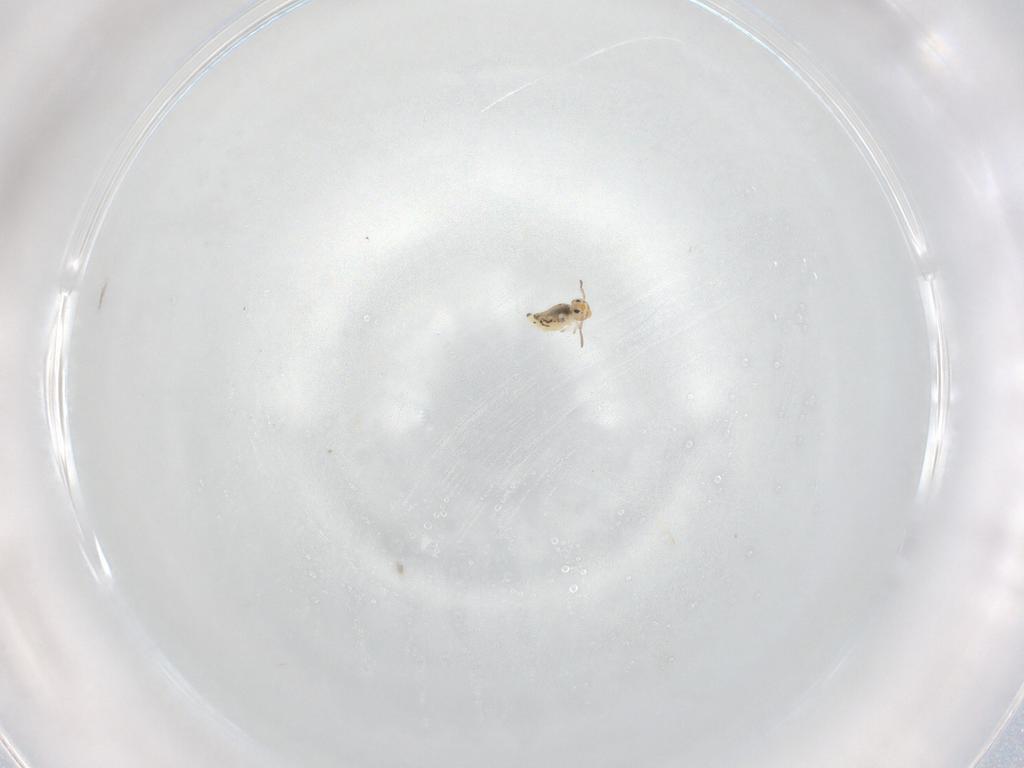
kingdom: Animalia
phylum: Arthropoda
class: Collembola
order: Symphypleona
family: Bourletiellidae
